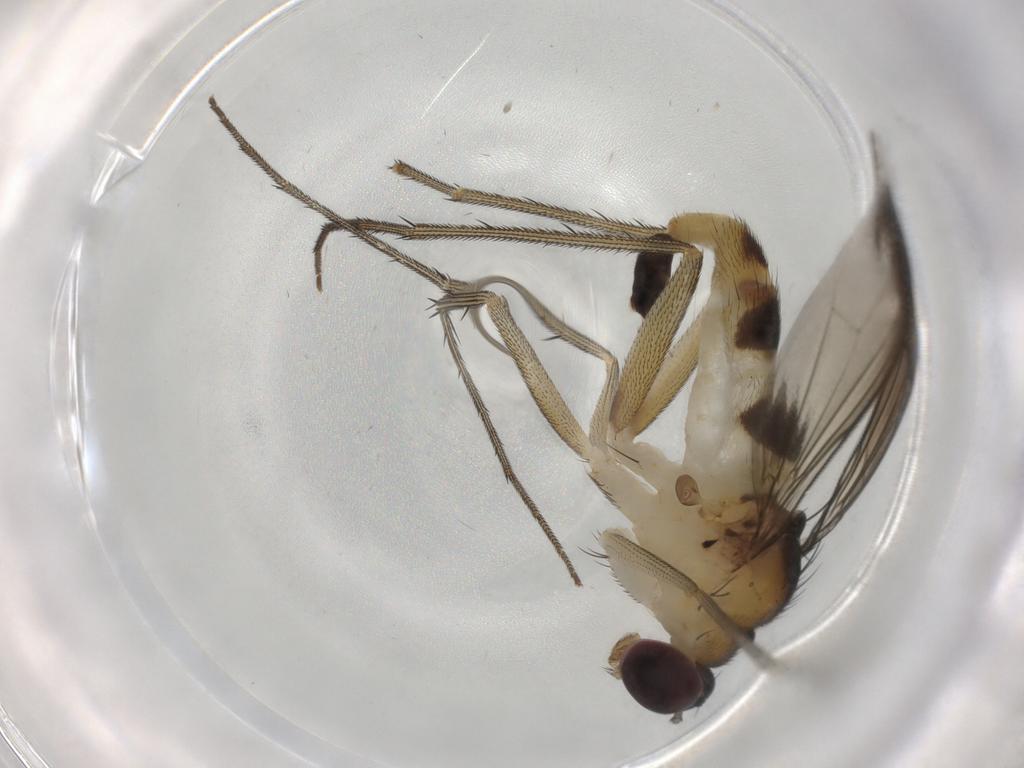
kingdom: Animalia
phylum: Arthropoda
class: Insecta
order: Diptera
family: Dolichopodidae
